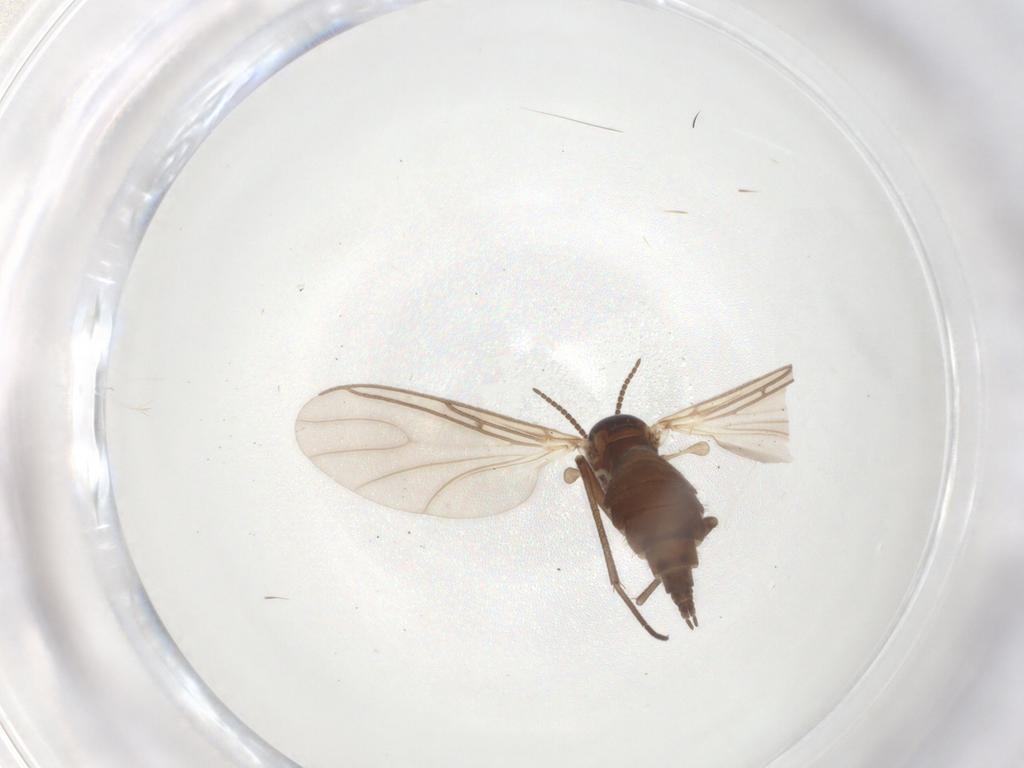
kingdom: Animalia
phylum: Arthropoda
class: Insecta
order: Diptera
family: Sciaridae
